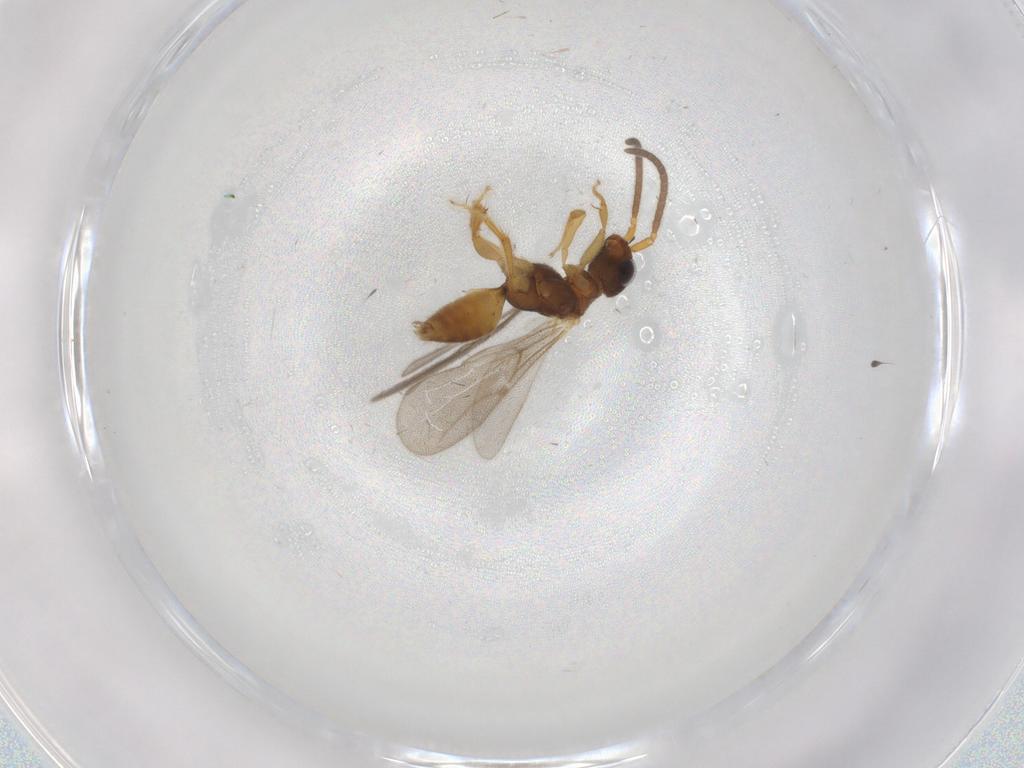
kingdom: Animalia
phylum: Arthropoda
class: Insecta
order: Hymenoptera
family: Bethylidae
